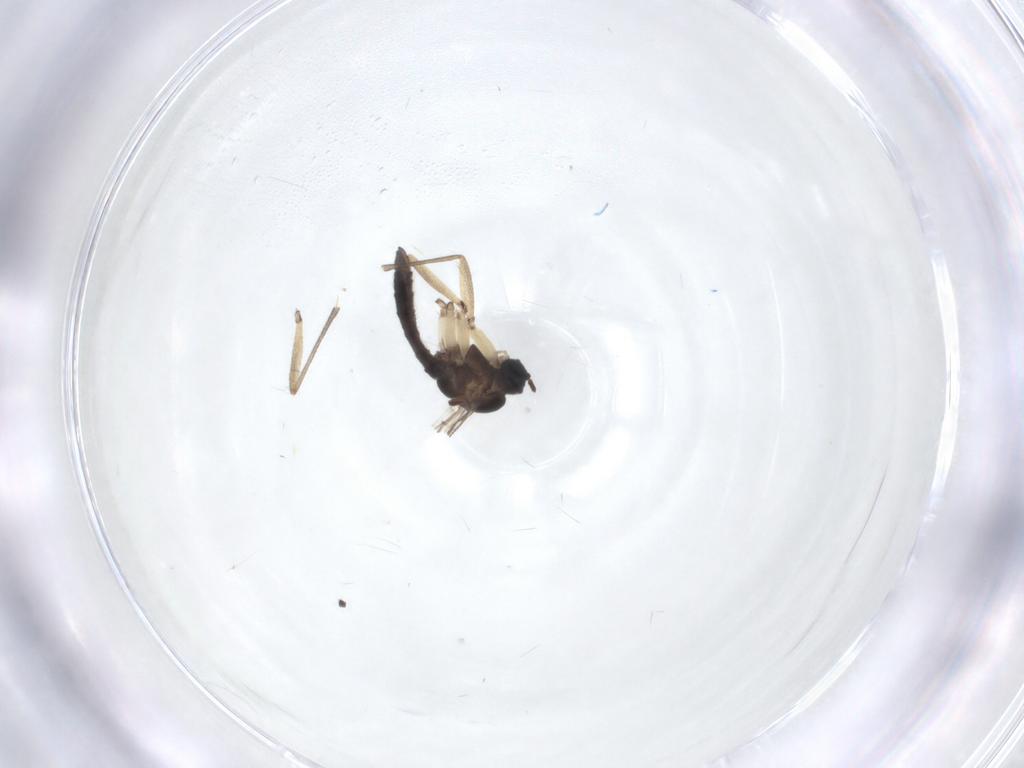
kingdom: Animalia
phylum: Arthropoda
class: Insecta
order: Diptera
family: Sciaridae
